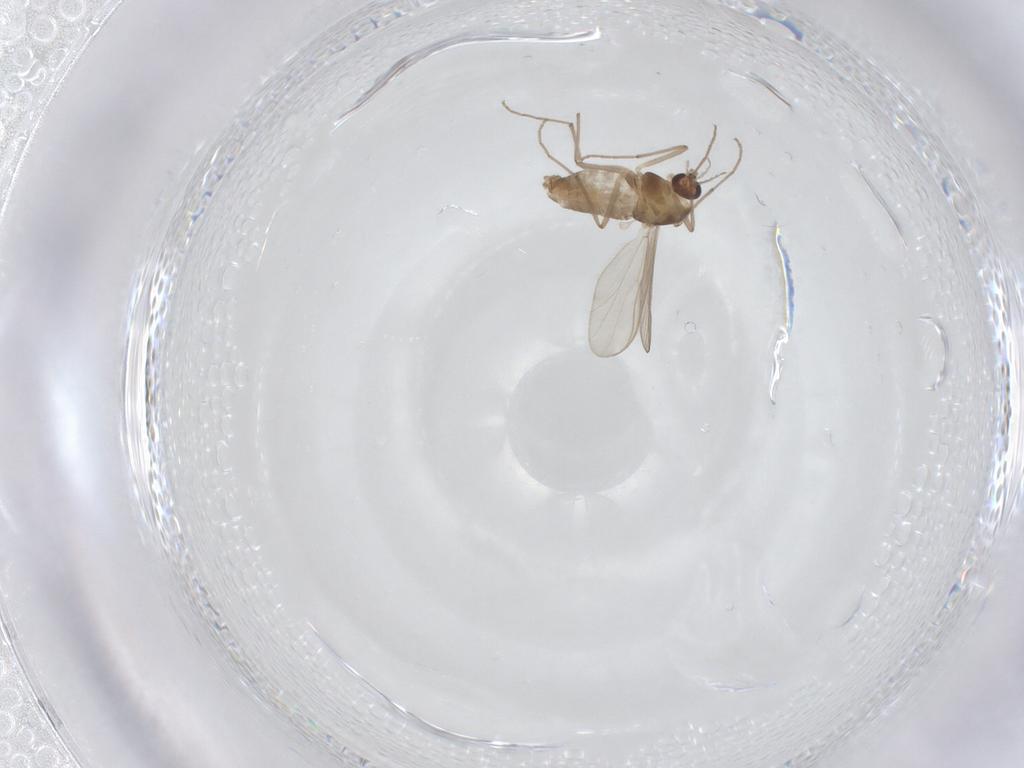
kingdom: Animalia
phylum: Arthropoda
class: Insecta
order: Diptera
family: Chironomidae
